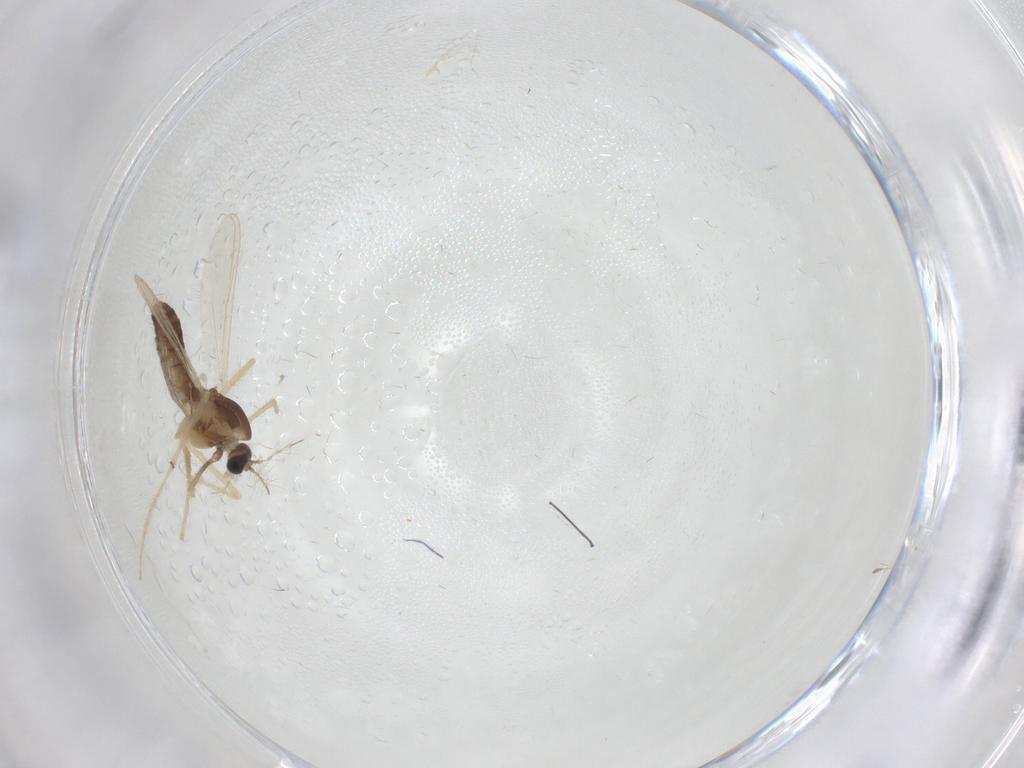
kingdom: Animalia
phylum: Arthropoda
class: Insecta
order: Diptera
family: Chironomidae
